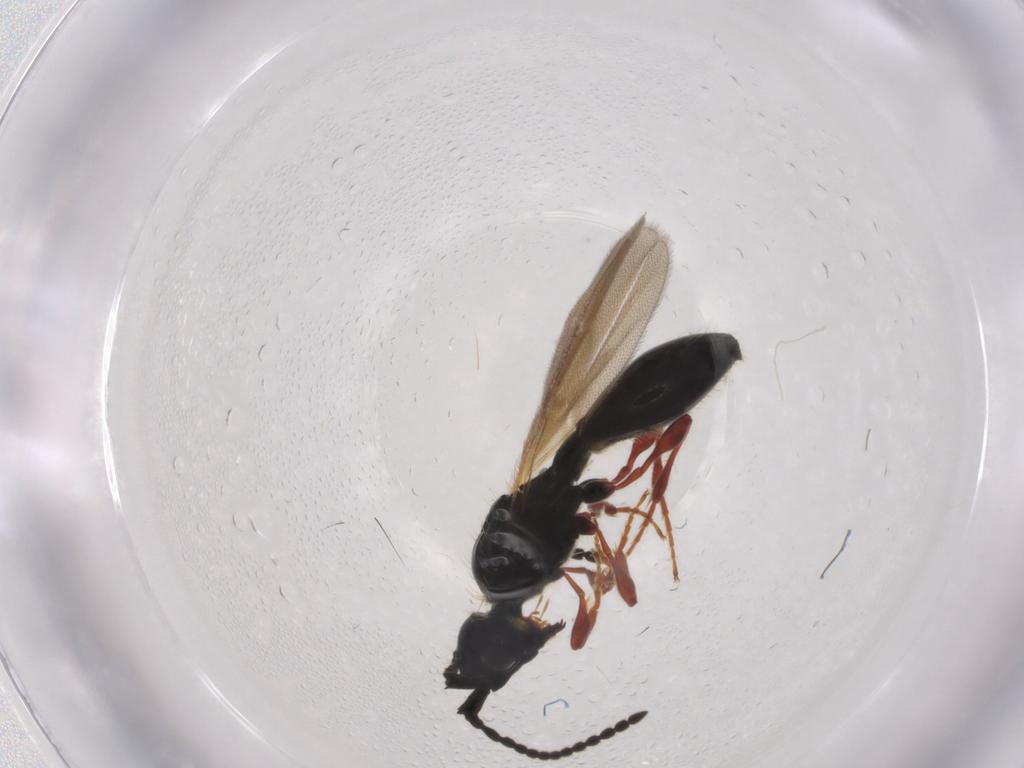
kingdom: Animalia
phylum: Arthropoda
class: Insecta
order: Hymenoptera
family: Diapriidae
